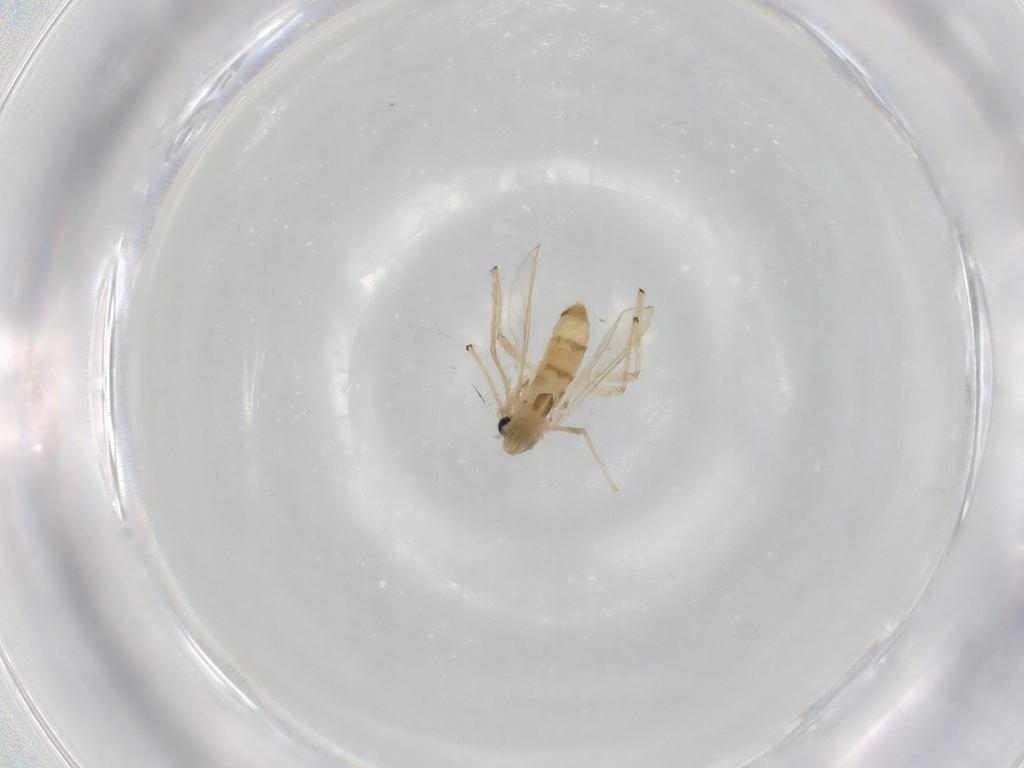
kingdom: Animalia
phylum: Arthropoda
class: Insecta
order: Diptera
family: Chironomidae
